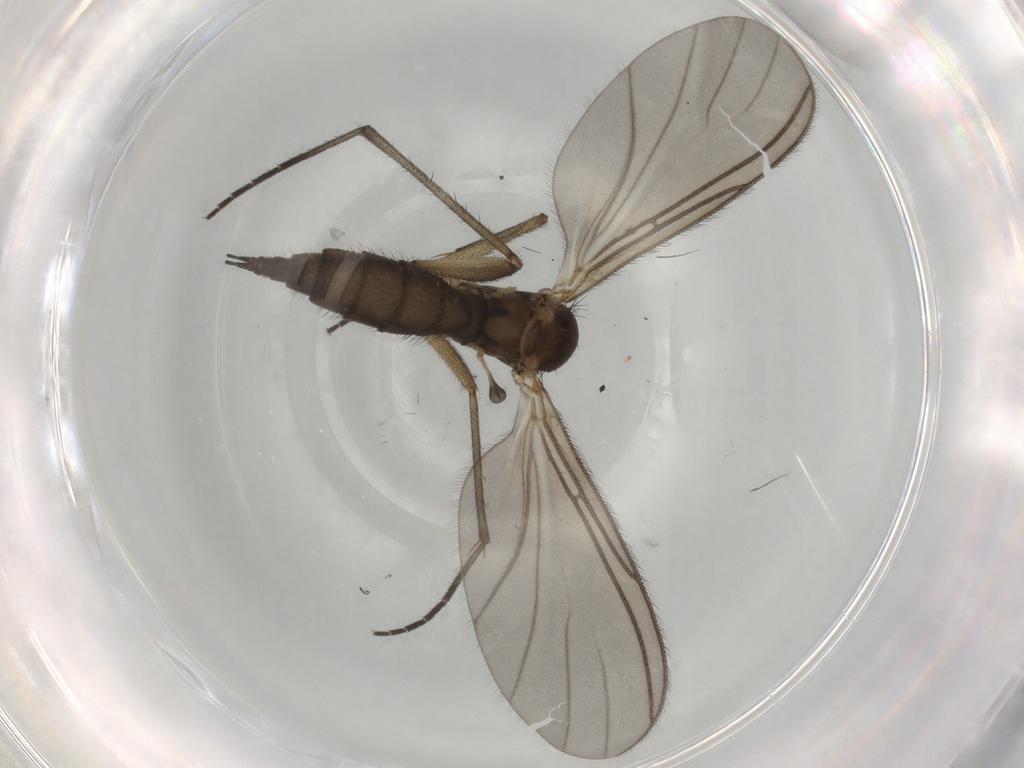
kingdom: Animalia
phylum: Arthropoda
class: Insecta
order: Diptera
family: Sciaridae
